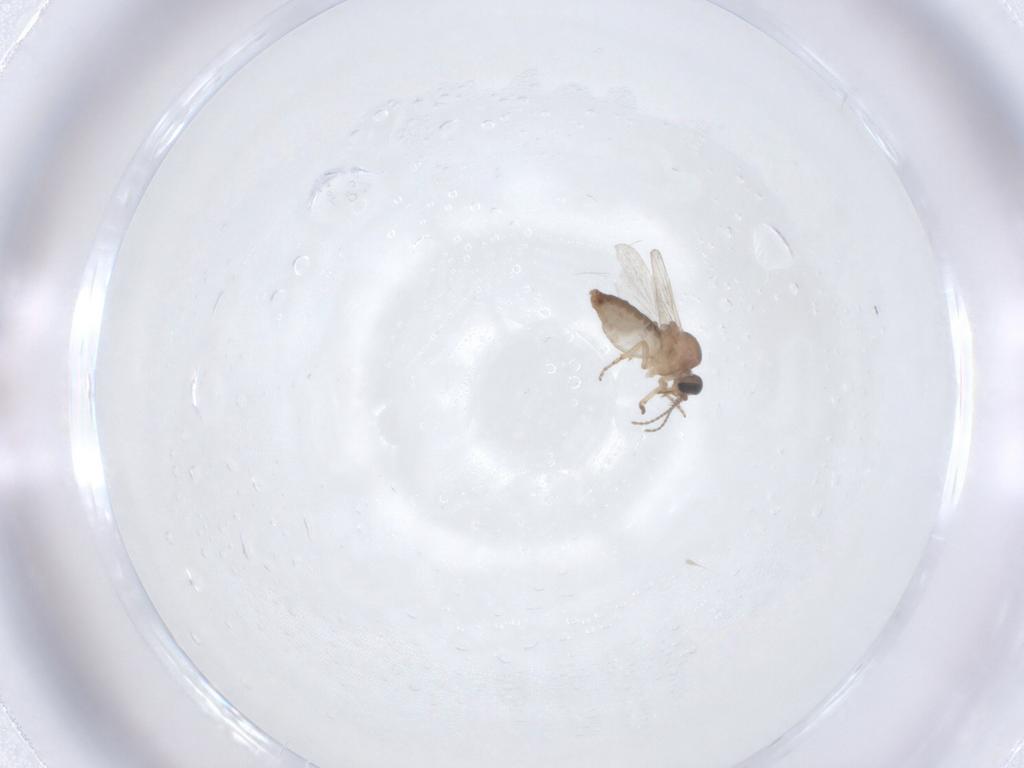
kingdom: Animalia
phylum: Arthropoda
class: Insecta
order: Diptera
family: Ceratopogonidae
